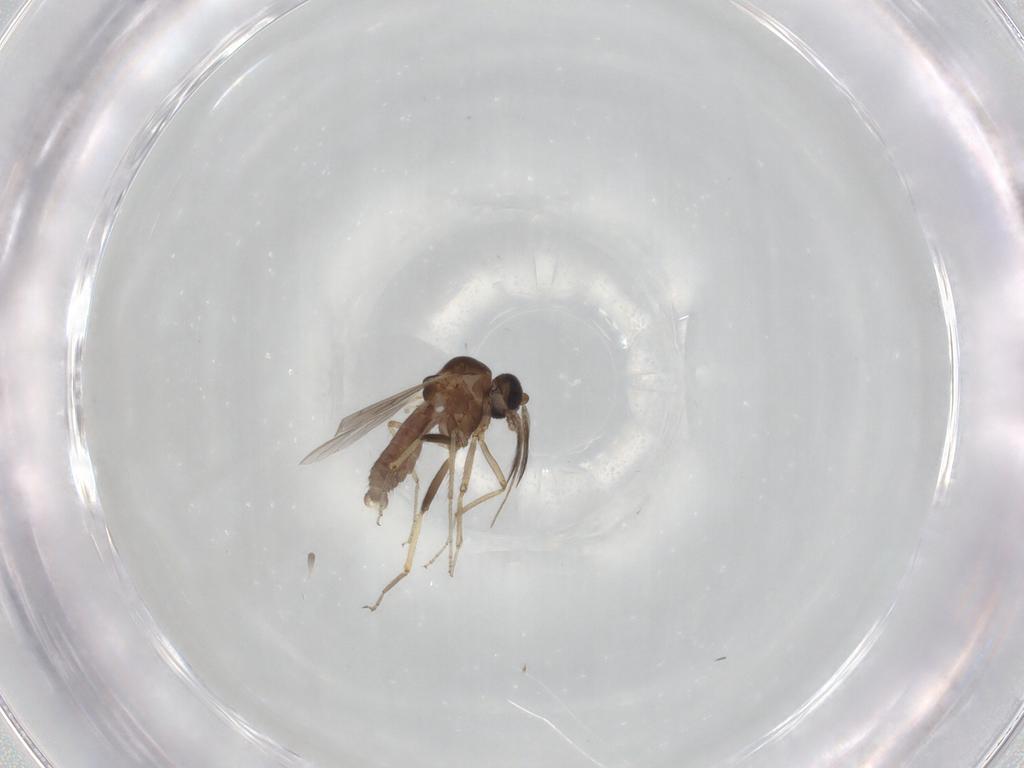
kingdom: Animalia
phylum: Arthropoda
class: Insecta
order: Diptera
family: Ceratopogonidae
